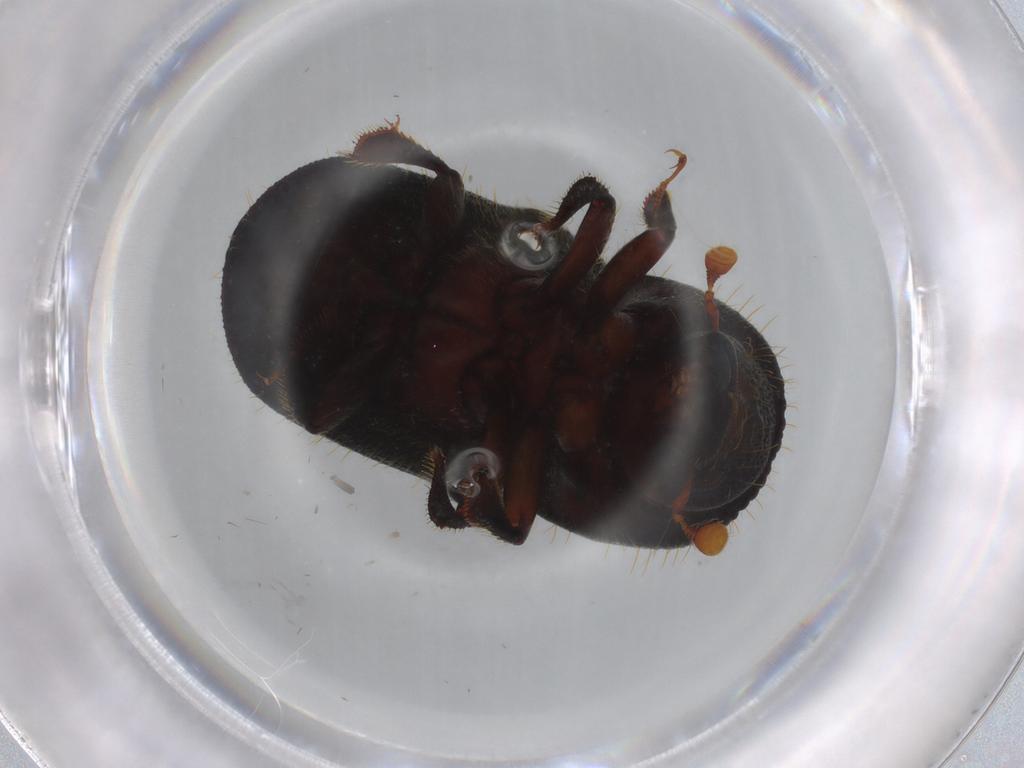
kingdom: Animalia
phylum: Arthropoda
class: Insecta
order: Coleoptera
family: Curculionidae
